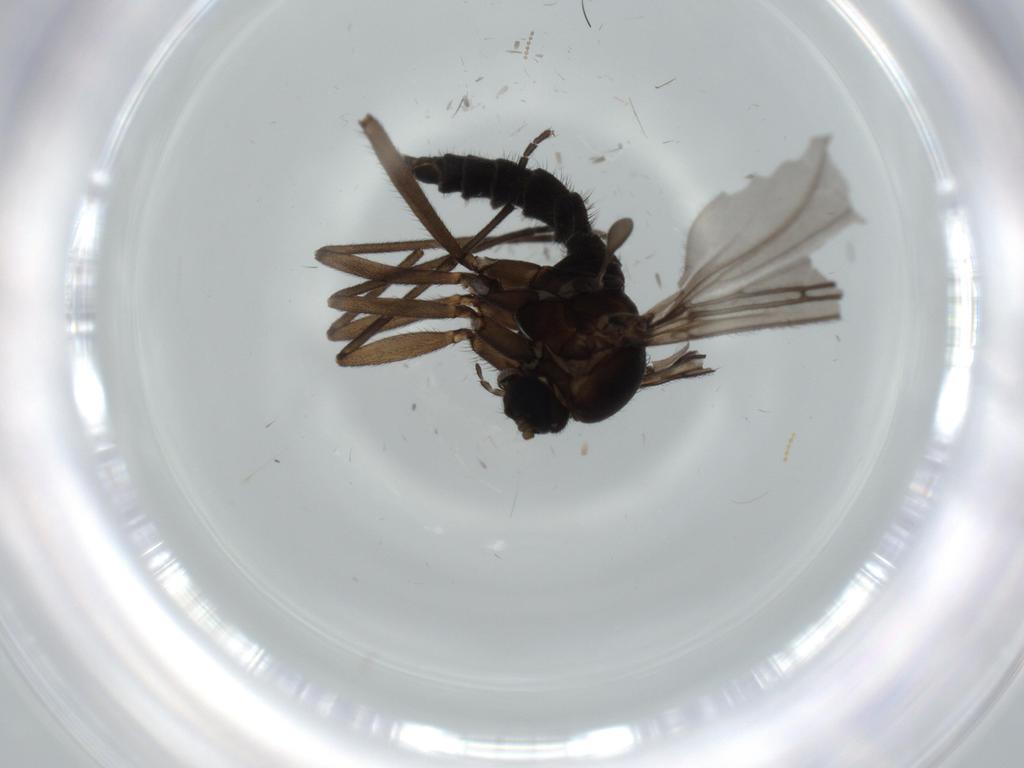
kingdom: Animalia
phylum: Arthropoda
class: Insecta
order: Diptera
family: Sciaridae
